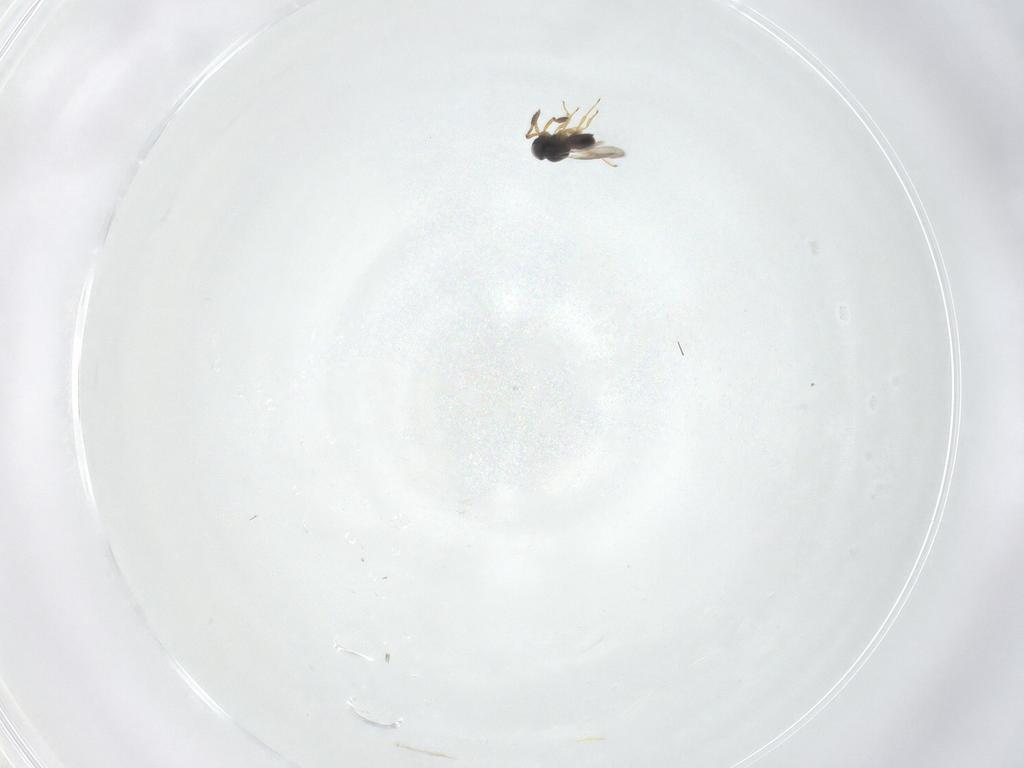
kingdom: Animalia
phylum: Arthropoda
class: Insecta
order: Hymenoptera
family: Scelionidae
